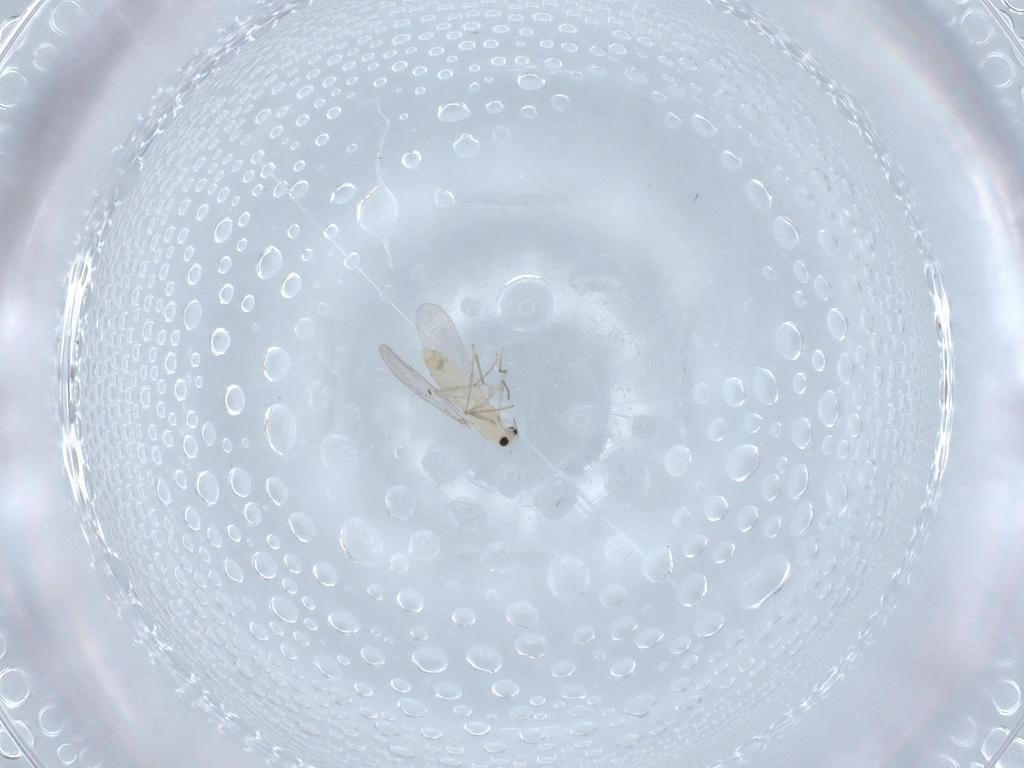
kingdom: Animalia
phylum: Arthropoda
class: Insecta
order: Diptera
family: Chironomidae
